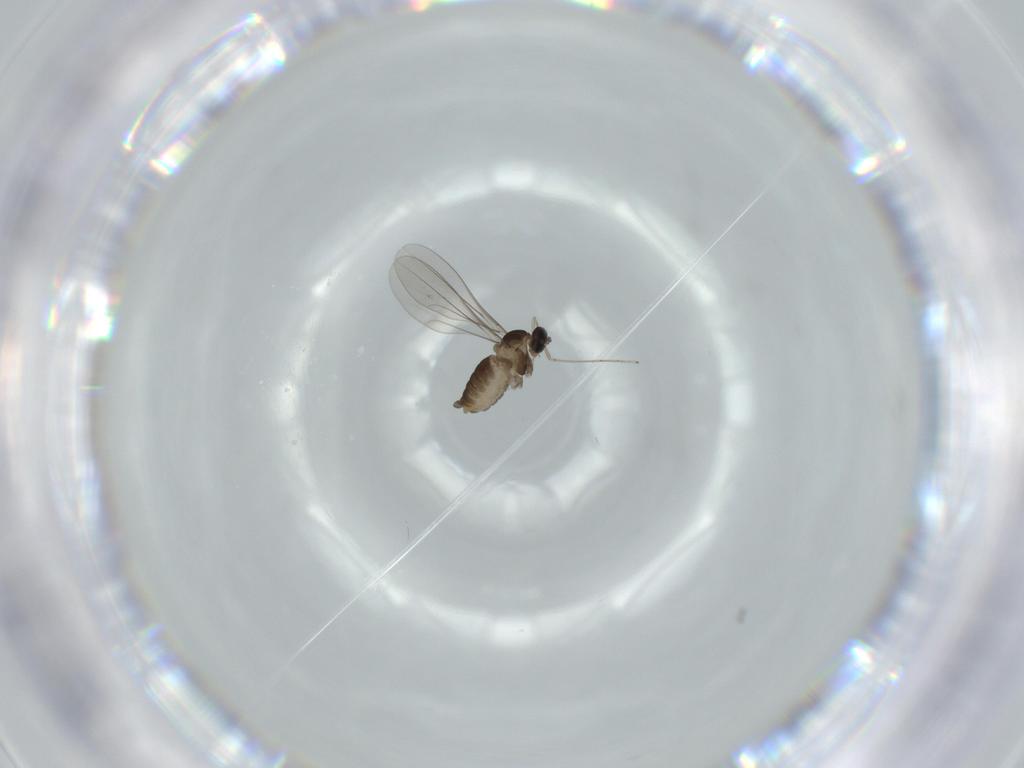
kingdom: Animalia
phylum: Arthropoda
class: Insecta
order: Diptera
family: Cecidomyiidae
